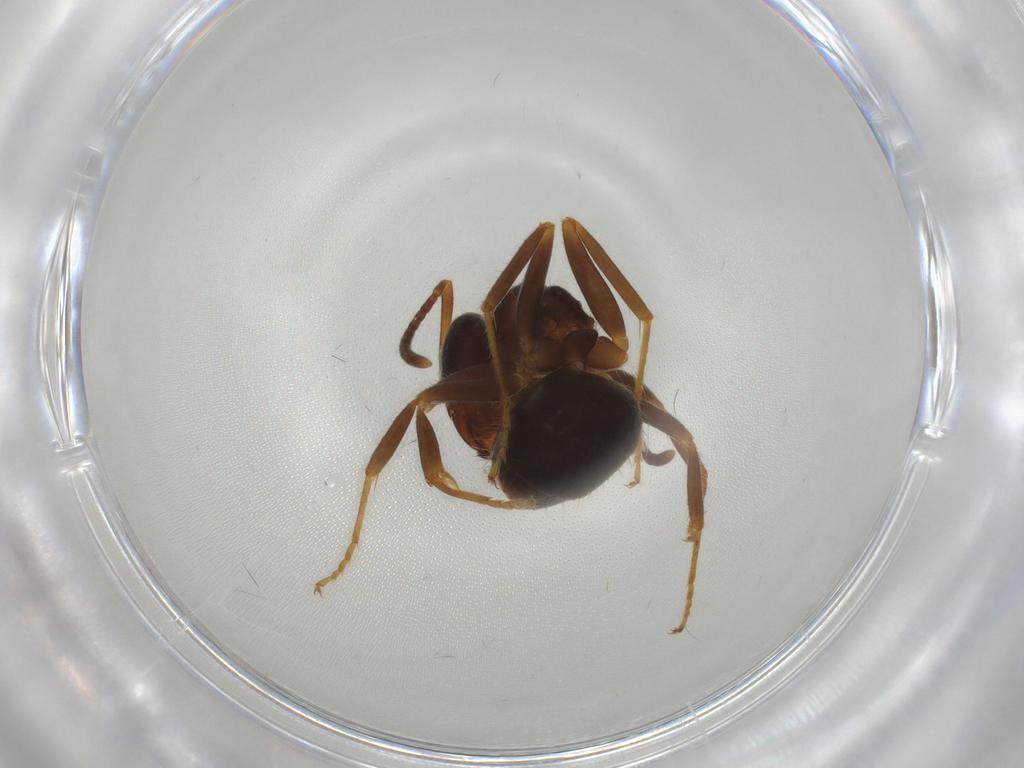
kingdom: Animalia
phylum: Arthropoda
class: Insecta
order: Hymenoptera
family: Formicidae
